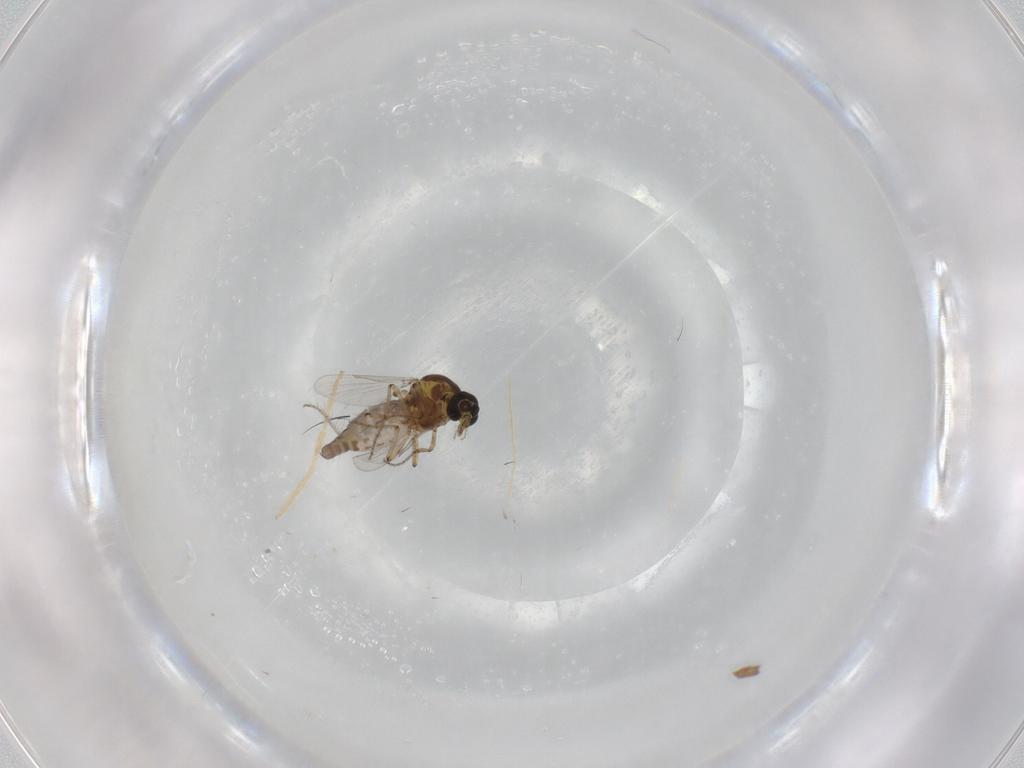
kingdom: Animalia
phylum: Arthropoda
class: Insecta
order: Diptera
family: Ceratopogonidae
